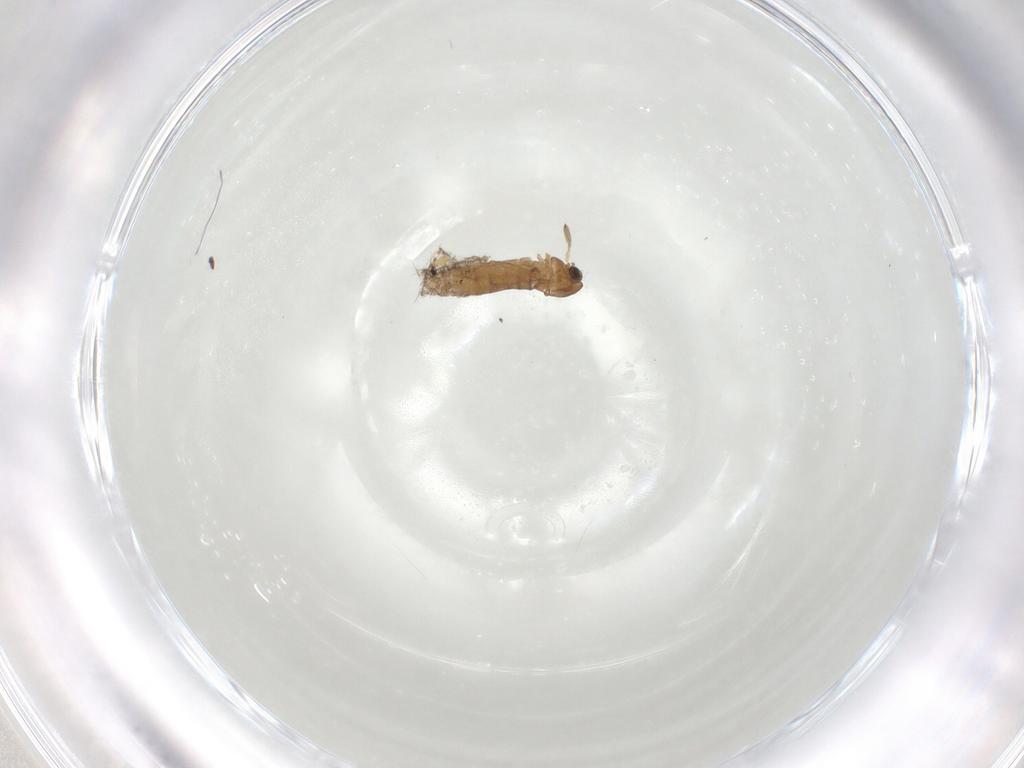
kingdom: Animalia
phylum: Arthropoda
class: Insecta
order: Diptera
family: Chironomidae
